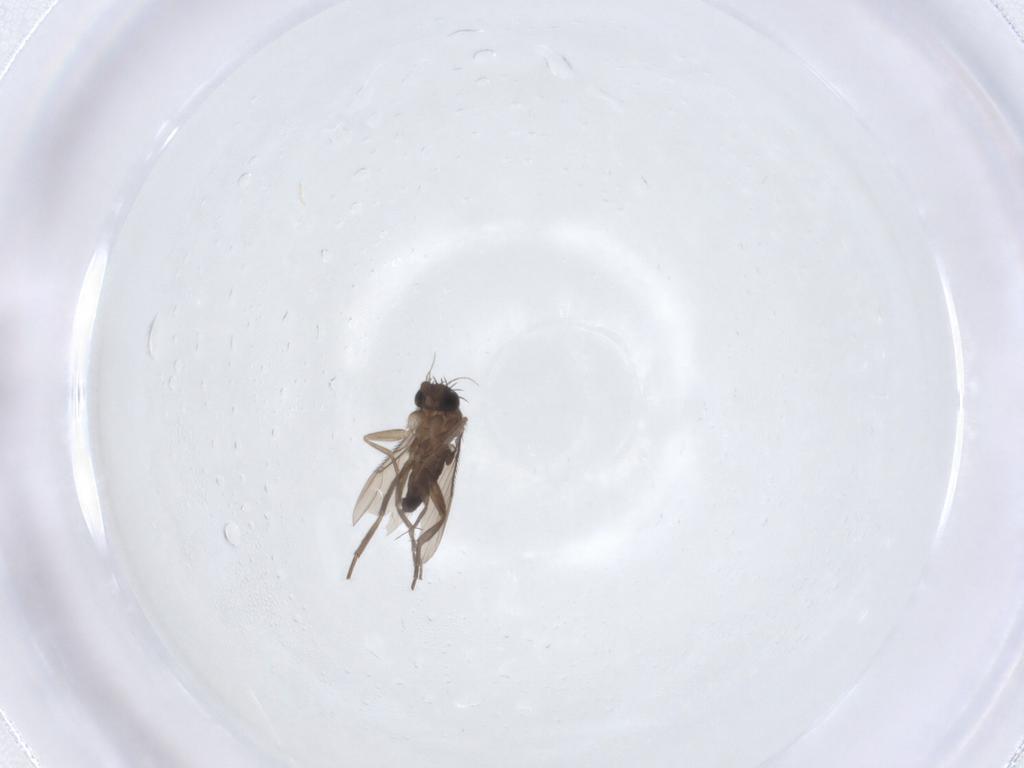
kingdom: Animalia
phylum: Arthropoda
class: Insecta
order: Diptera
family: Phoridae
